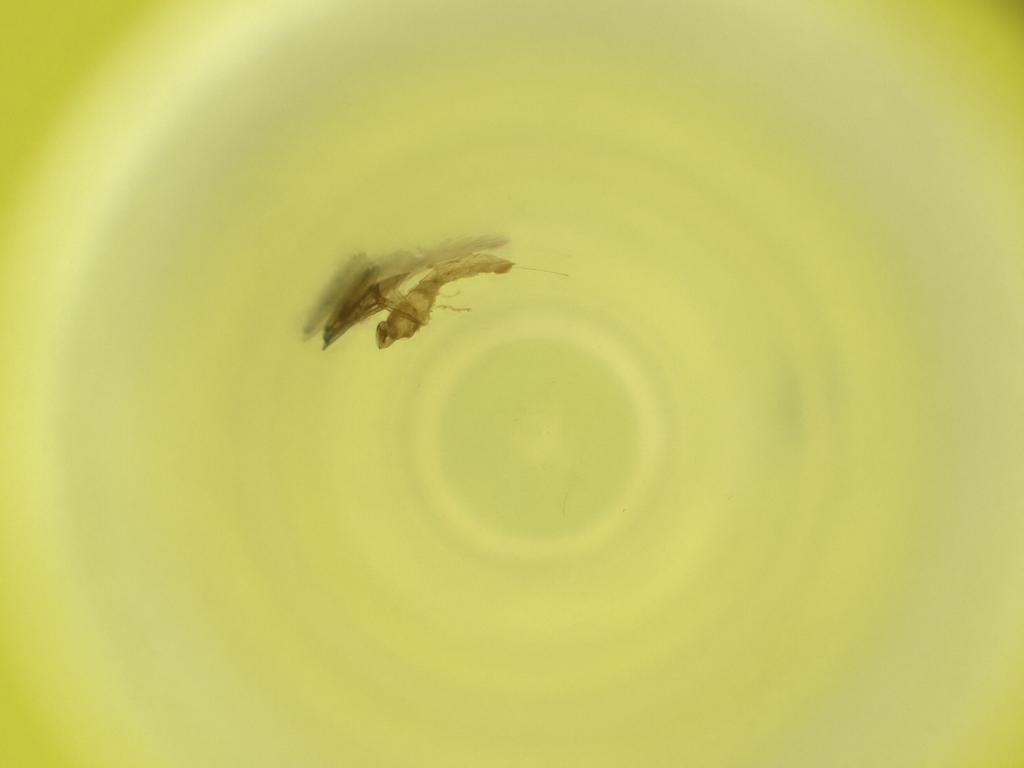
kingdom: Animalia
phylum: Arthropoda
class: Insecta
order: Diptera
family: Cecidomyiidae
